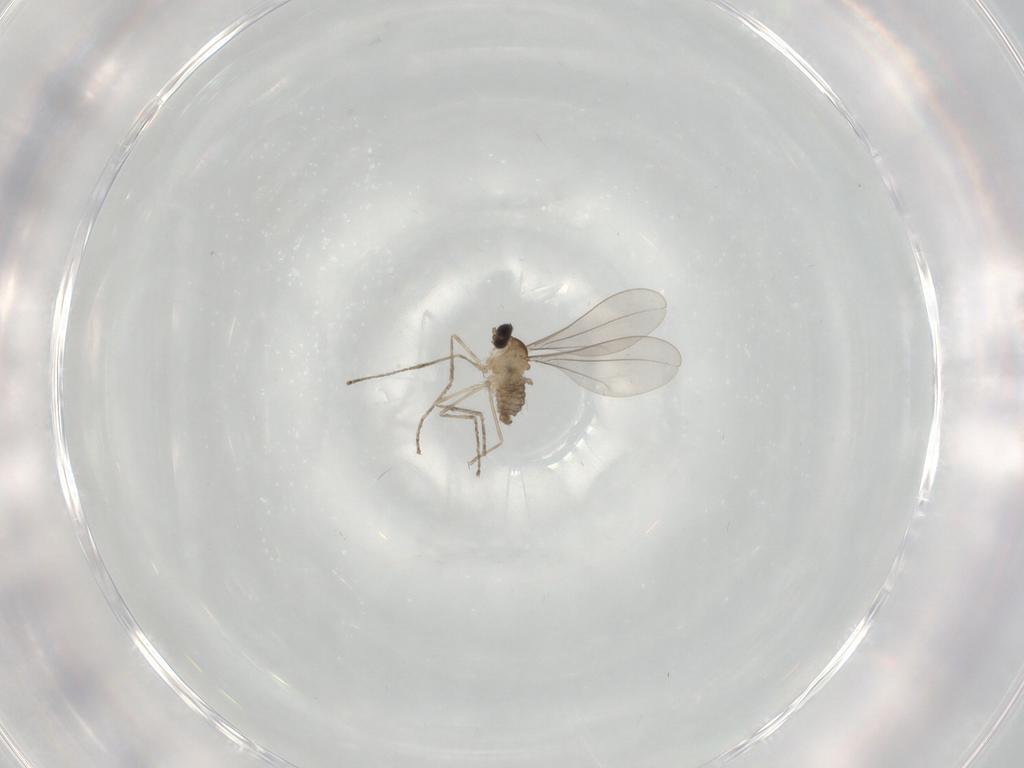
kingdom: Animalia
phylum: Arthropoda
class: Insecta
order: Diptera
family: Cecidomyiidae
